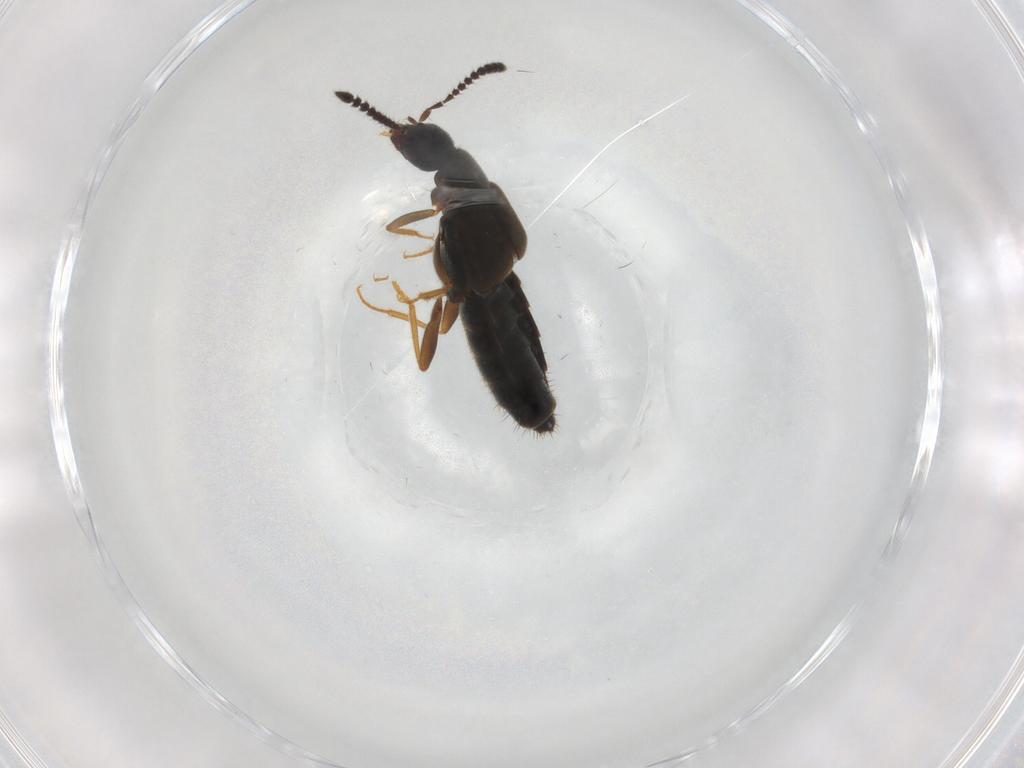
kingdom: Animalia
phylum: Arthropoda
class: Insecta
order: Coleoptera
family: Staphylinidae
